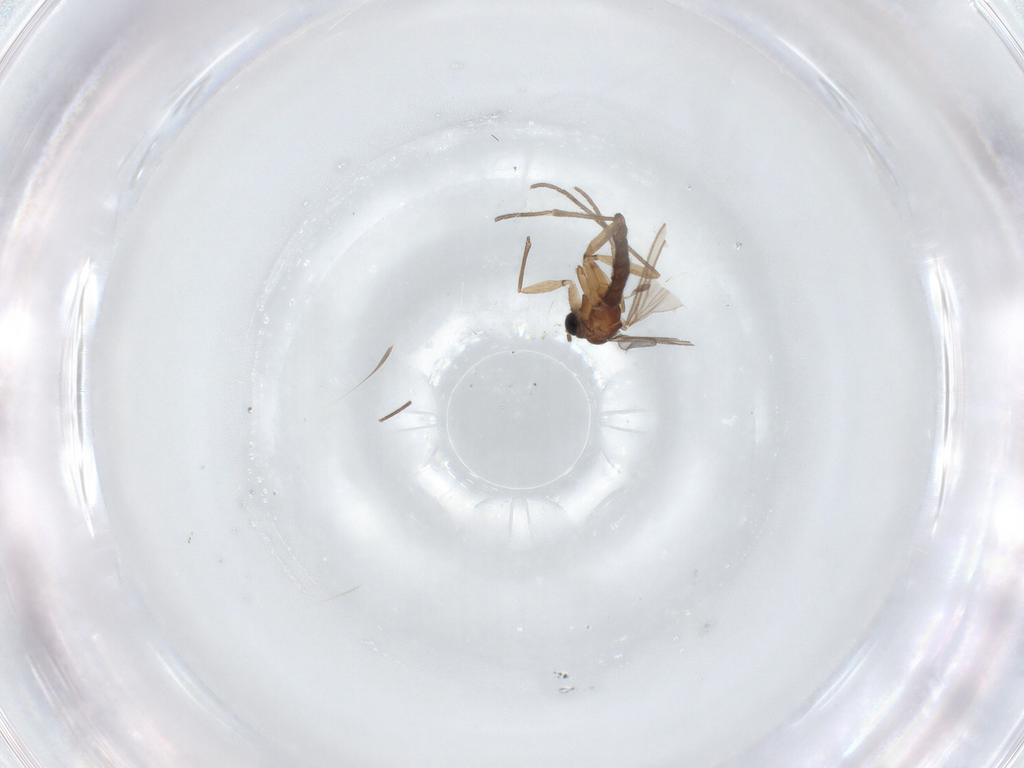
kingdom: Animalia
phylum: Arthropoda
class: Insecta
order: Diptera
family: Sciaridae
